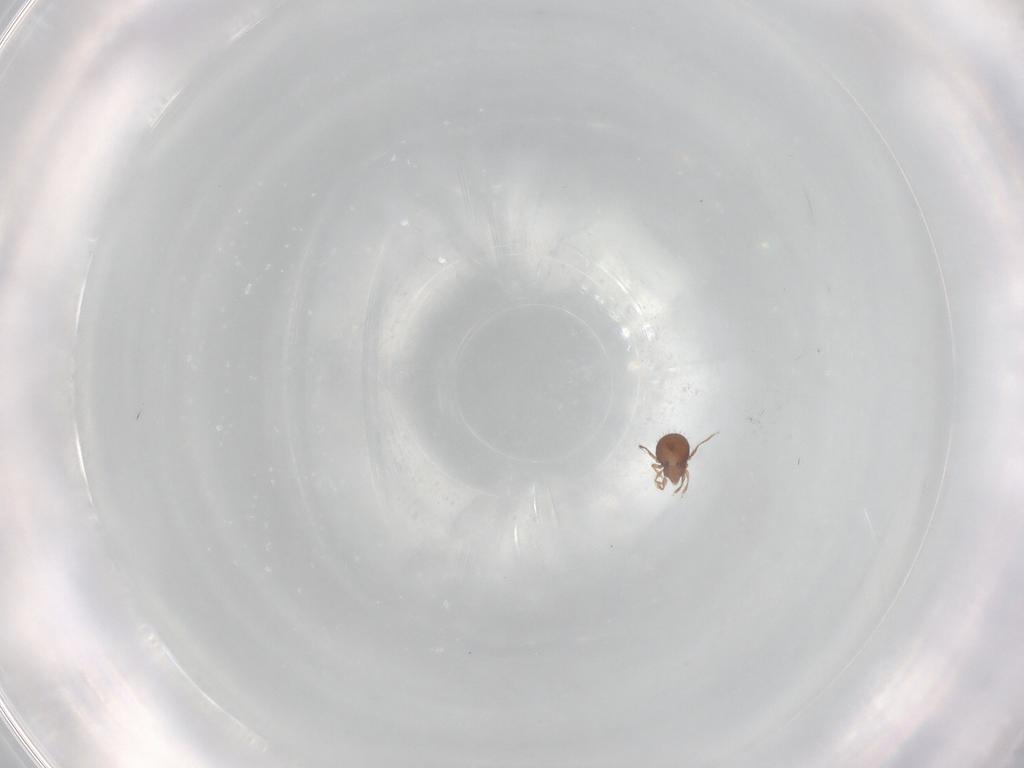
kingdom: Animalia
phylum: Arthropoda
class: Arachnida
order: Sarcoptiformes
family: Oribatulidae
